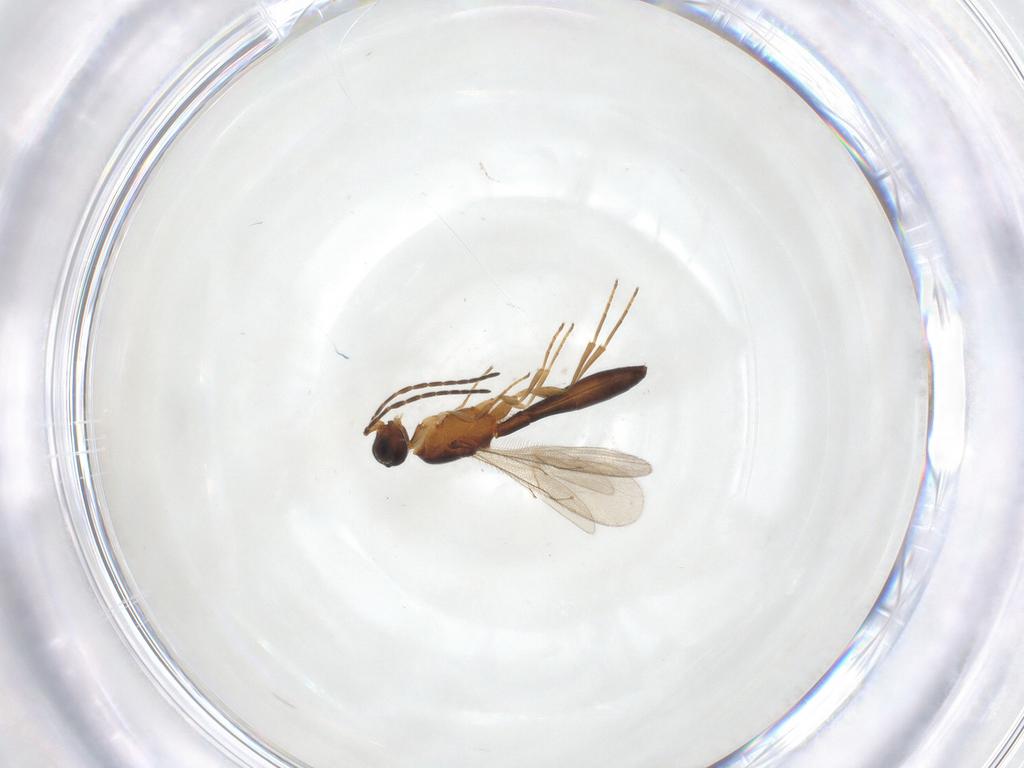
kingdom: Animalia
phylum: Arthropoda
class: Insecta
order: Hymenoptera
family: Scelionidae
